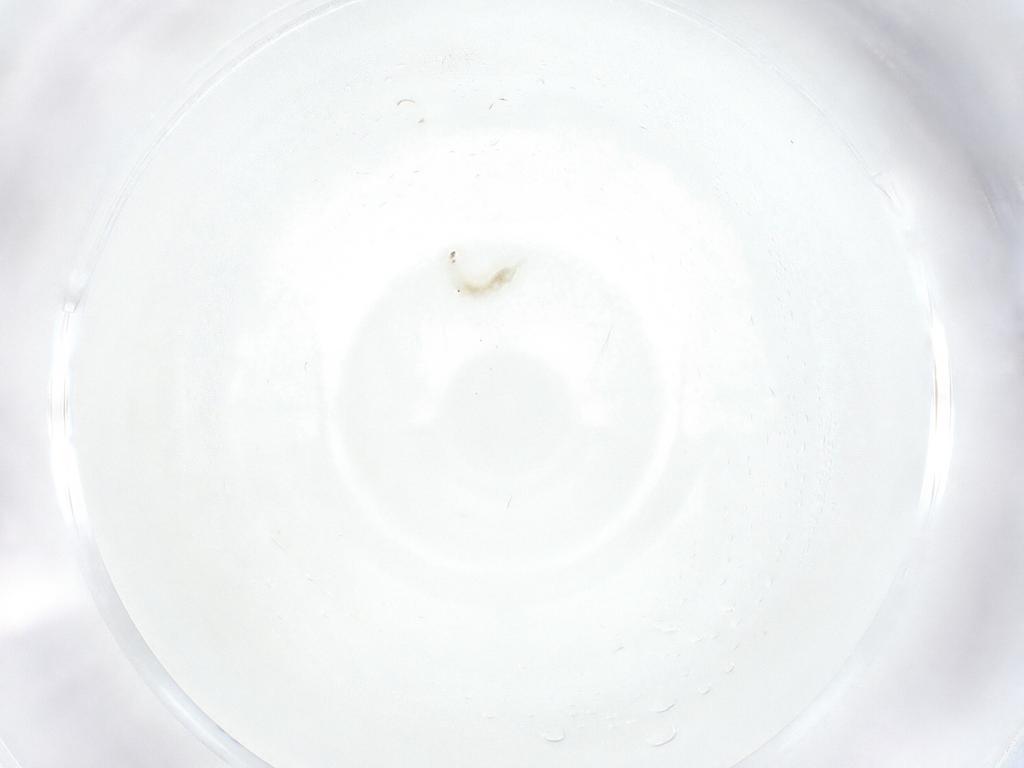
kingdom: Animalia
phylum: Arthropoda
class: Insecta
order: Diptera
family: Cecidomyiidae
